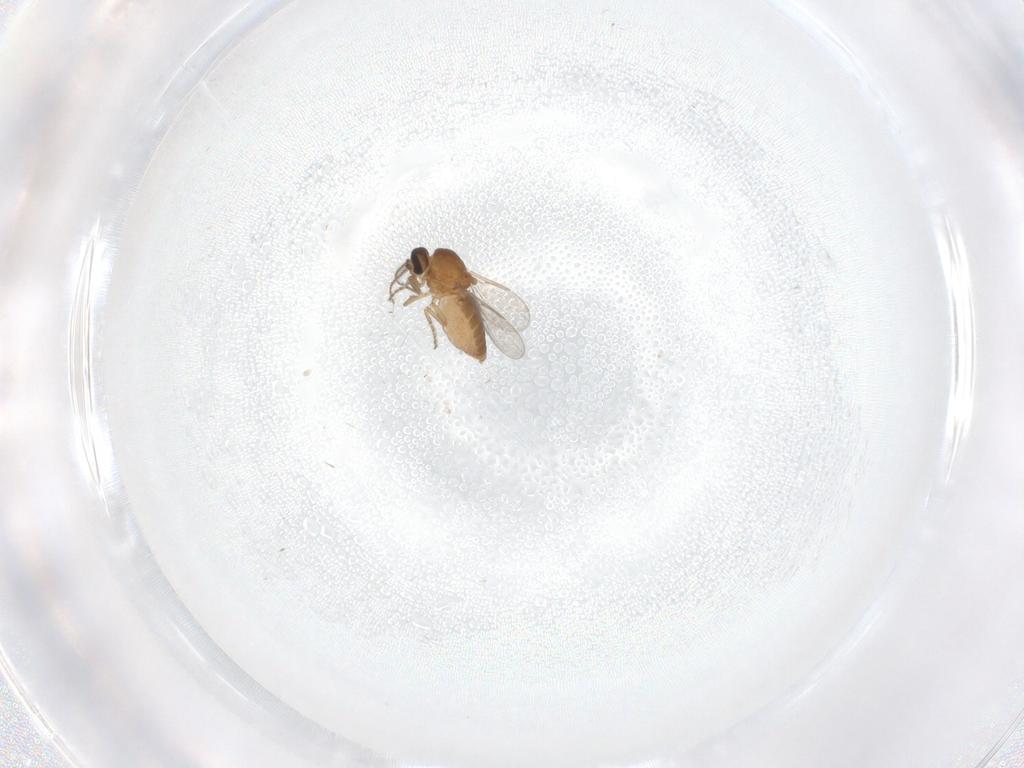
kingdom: Animalia
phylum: Arthropoda
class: Insecta
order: Diptera
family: Ceratopogonidae
